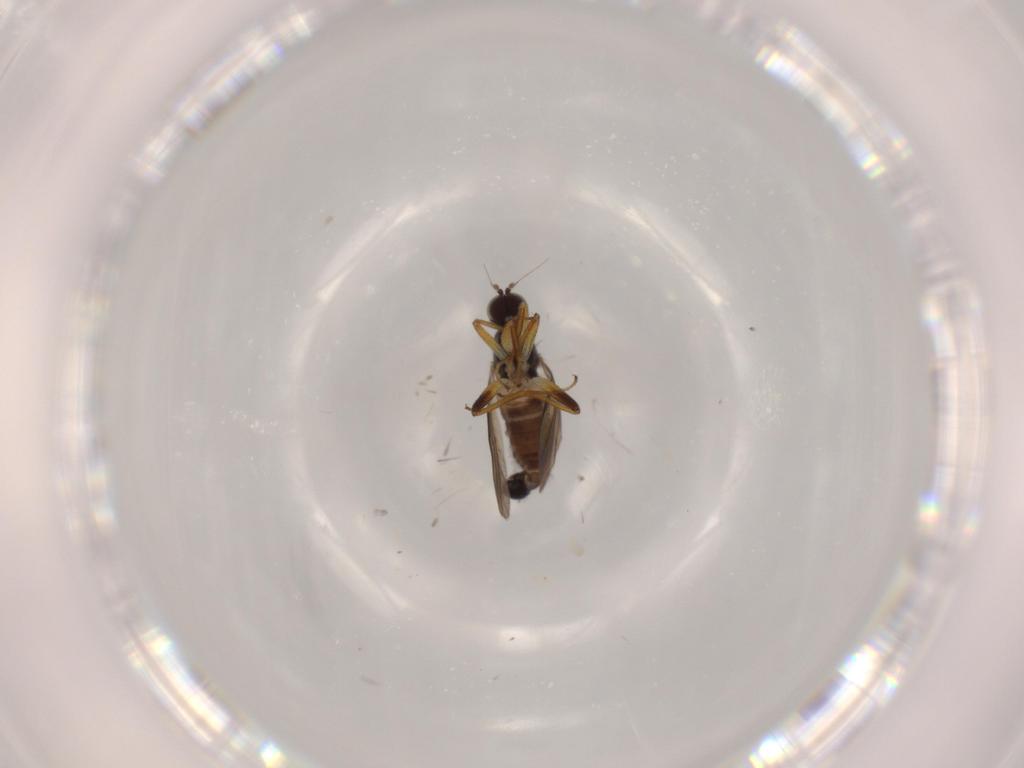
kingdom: Animalia
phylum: Arthropoda
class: Insecta
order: Diptera
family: Hybotidae
